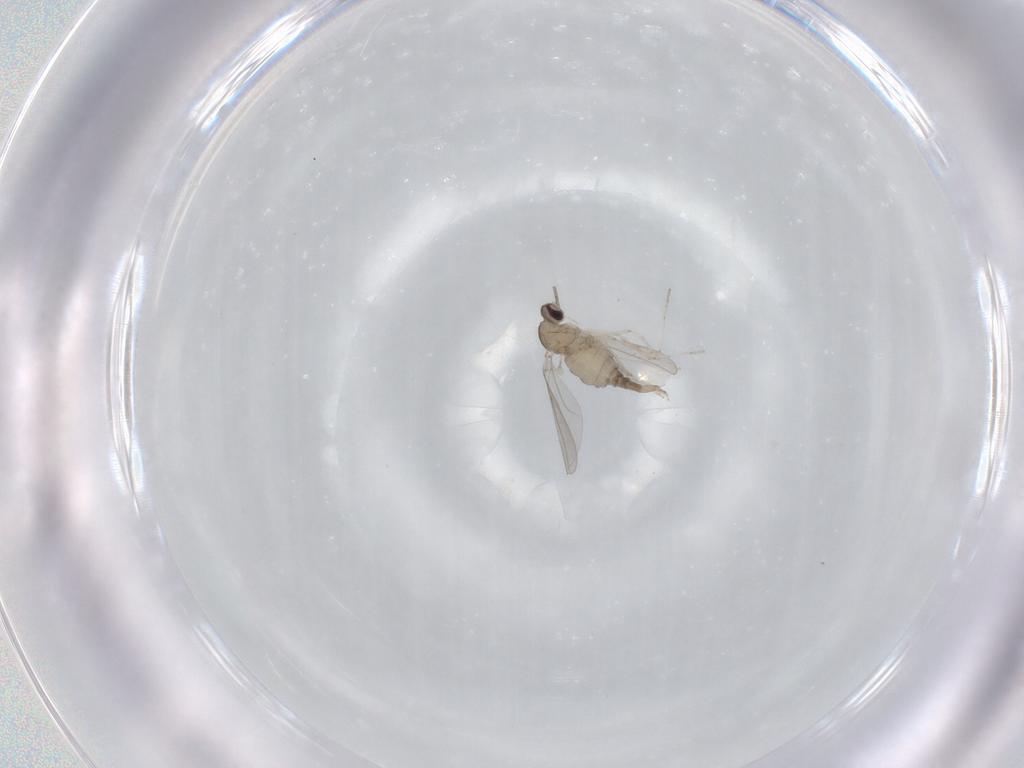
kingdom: Animalia
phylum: Arthropoda
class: Insecta
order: Diptera
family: Cecidomyiidae
